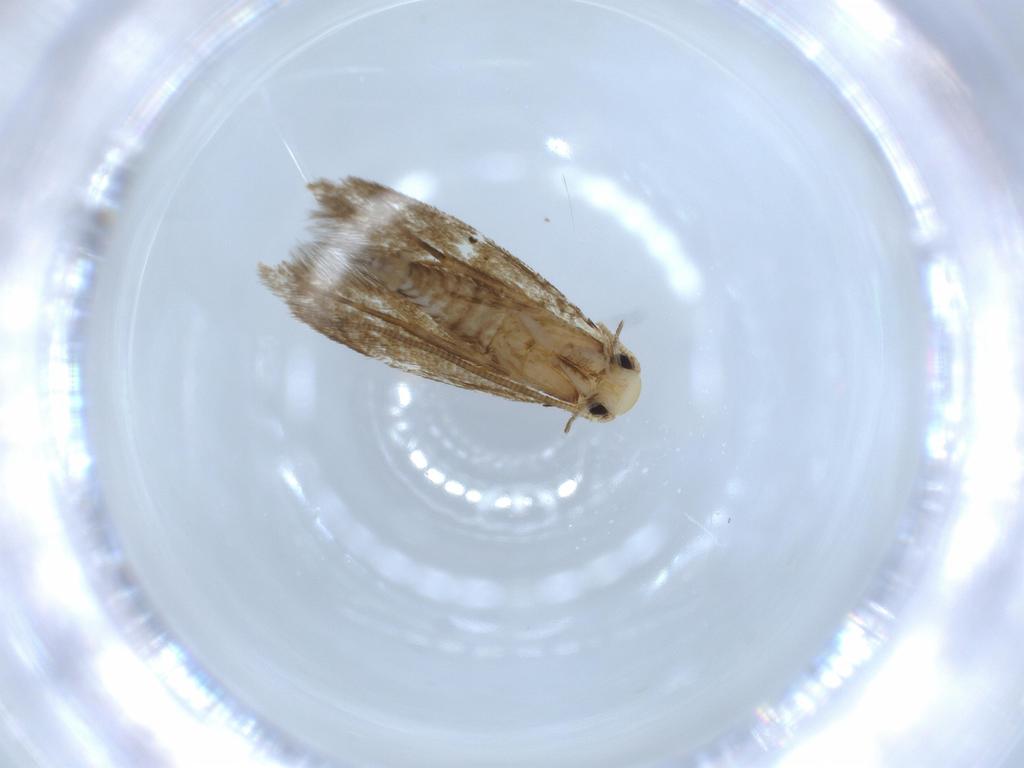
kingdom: Animalia
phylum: Arthropoda
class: Insecta
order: Lepidoptera
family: Tineidae
